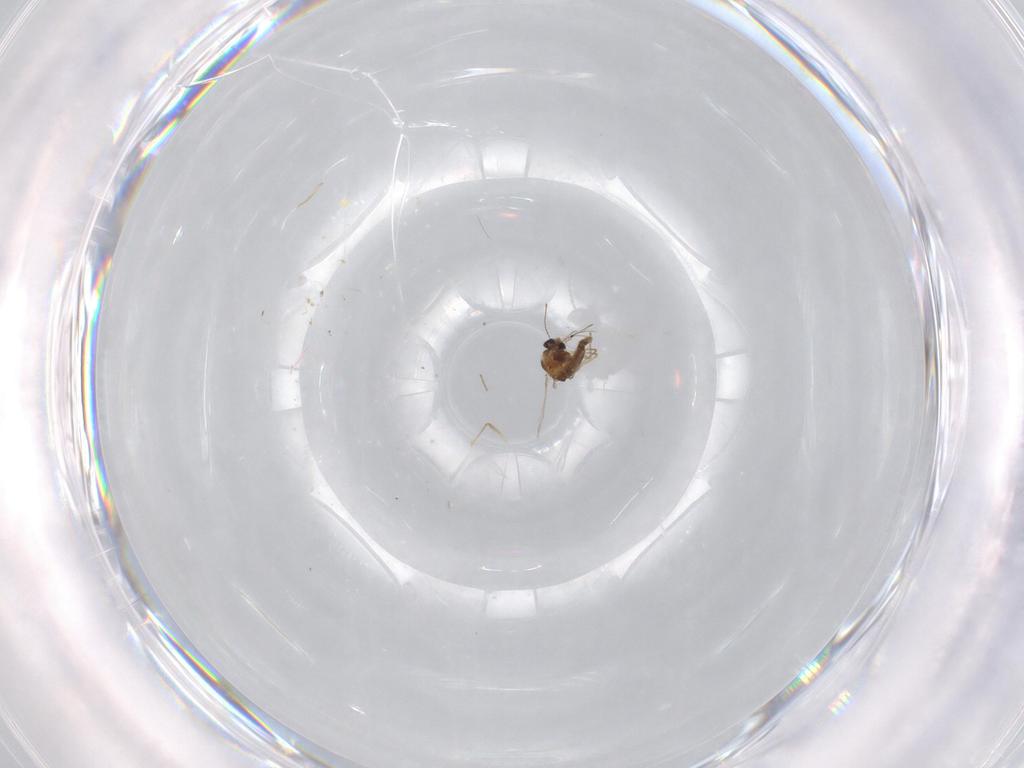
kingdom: Animalia
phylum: Arthropoda
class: Insecta
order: Diptera
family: Chironomidae
